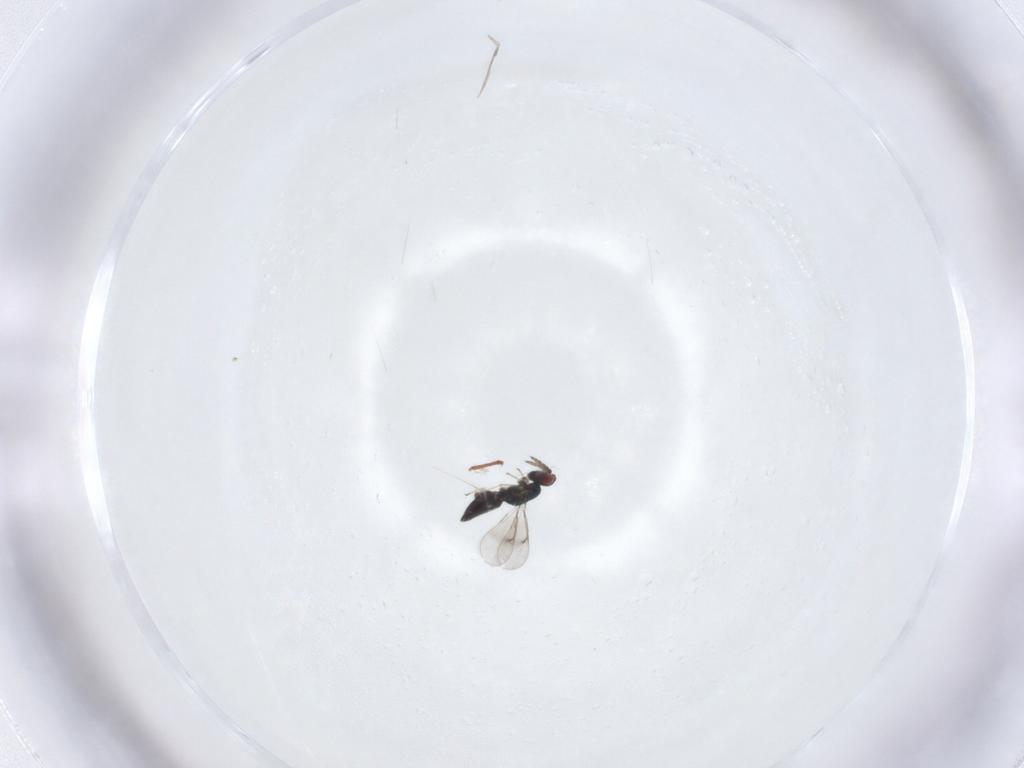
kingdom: Animalia
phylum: Arthropoda
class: Insecta
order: Hymenoptera
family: Eulophidae
